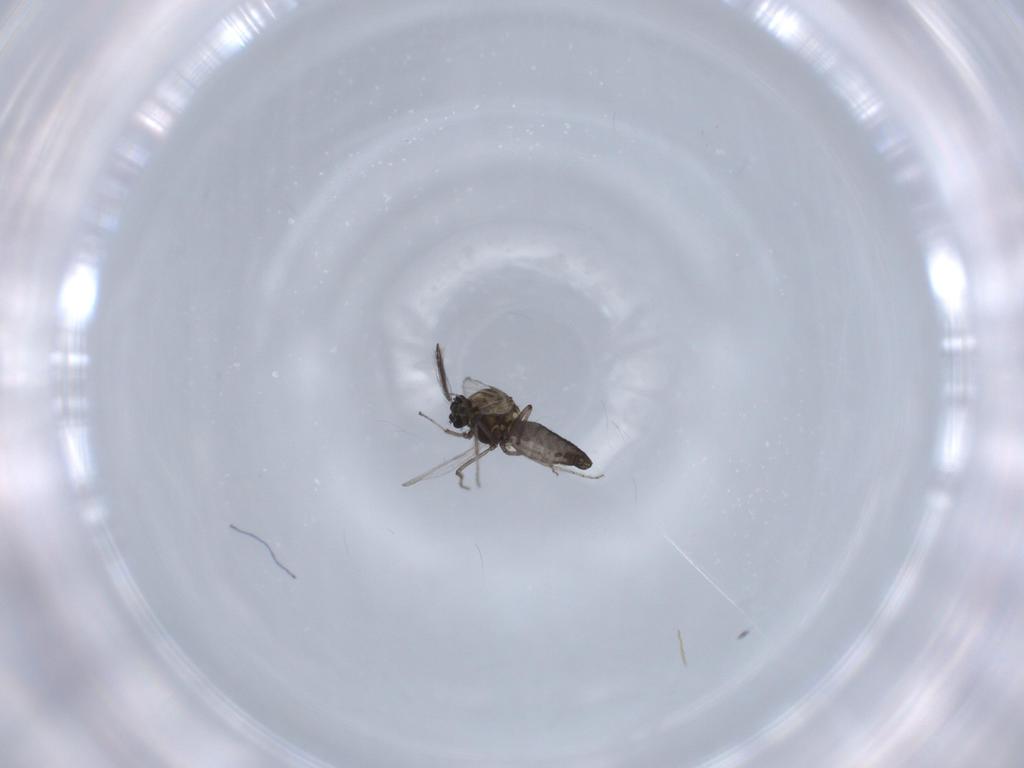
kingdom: Animalia
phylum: Arthropoda
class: Insecta
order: Diptera
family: Ceratopogonidae
